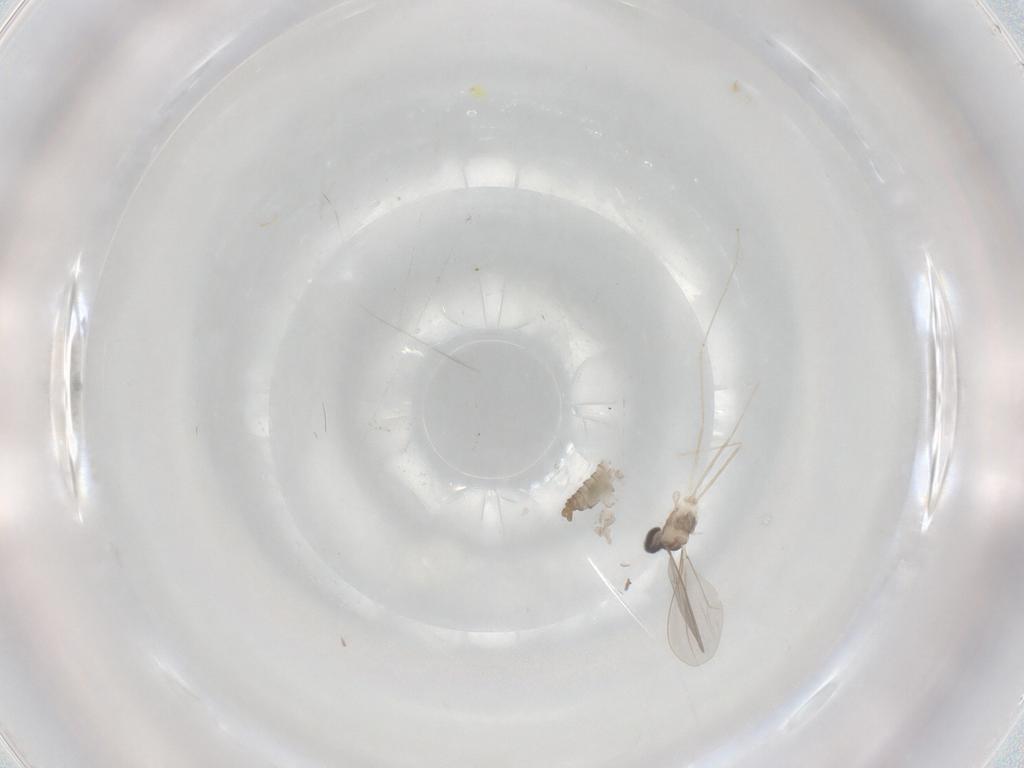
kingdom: Animalia
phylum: Arthropoda
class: Insecta
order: Diptera
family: Cecidomyiidae
